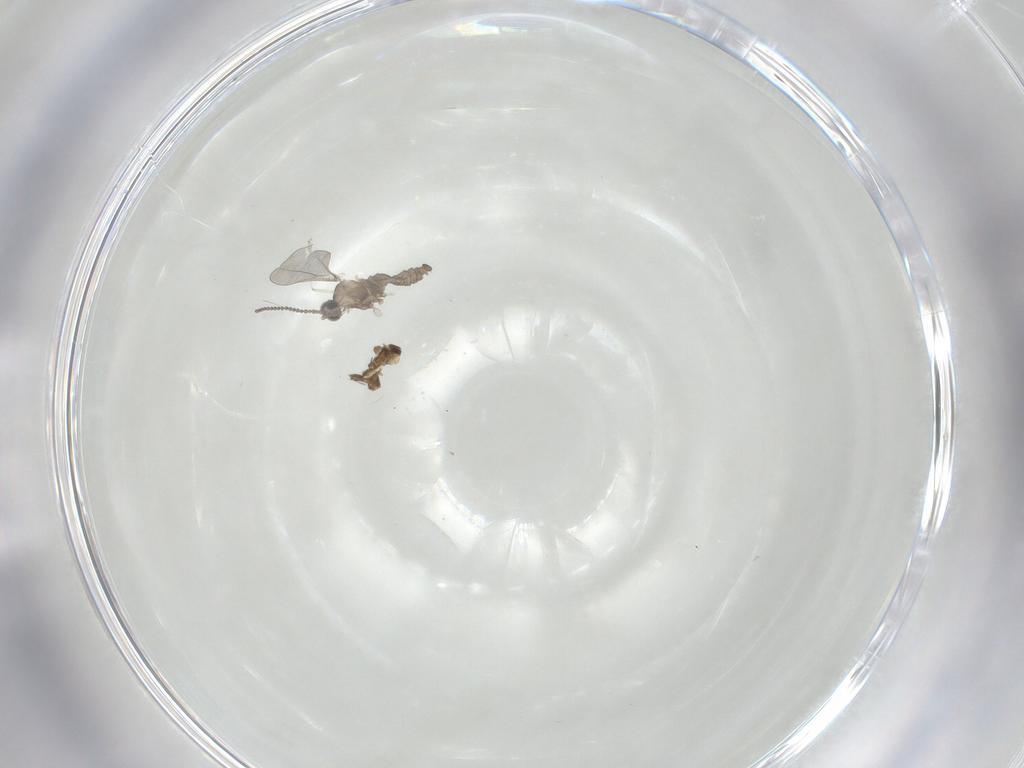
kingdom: Animalia
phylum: Arthropoda
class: Insecta
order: Diptera
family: Cecidomyiidae
